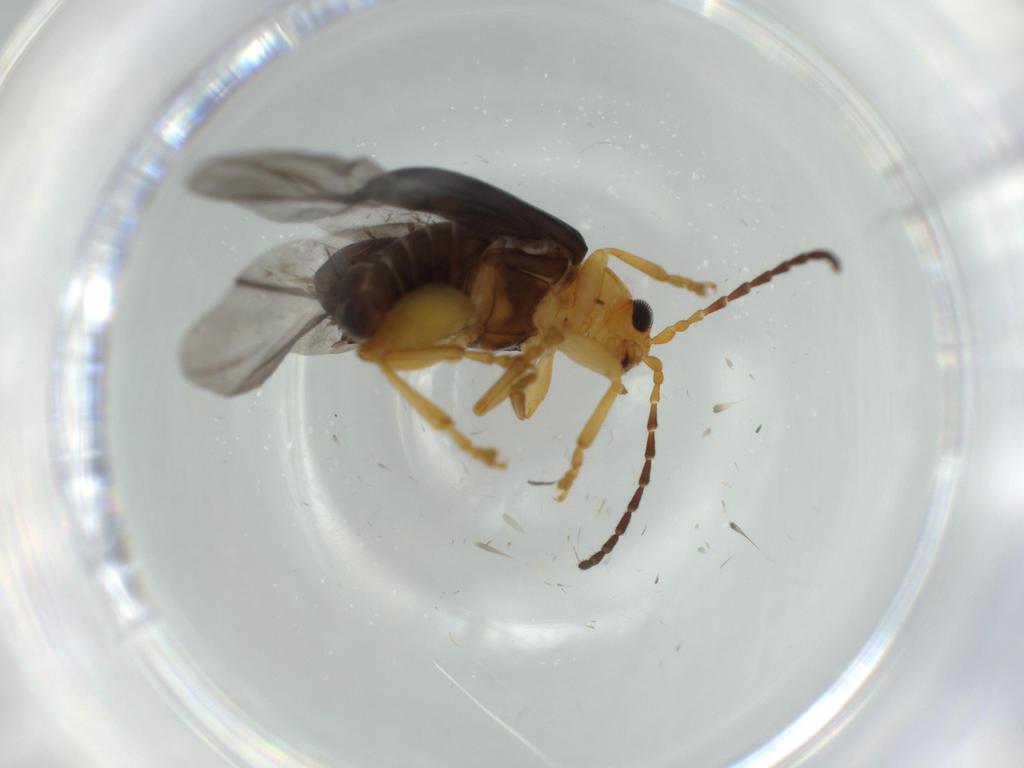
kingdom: Animalia
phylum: Arthropoda
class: Insecta
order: Coleoptera
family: Chrysomelidae
